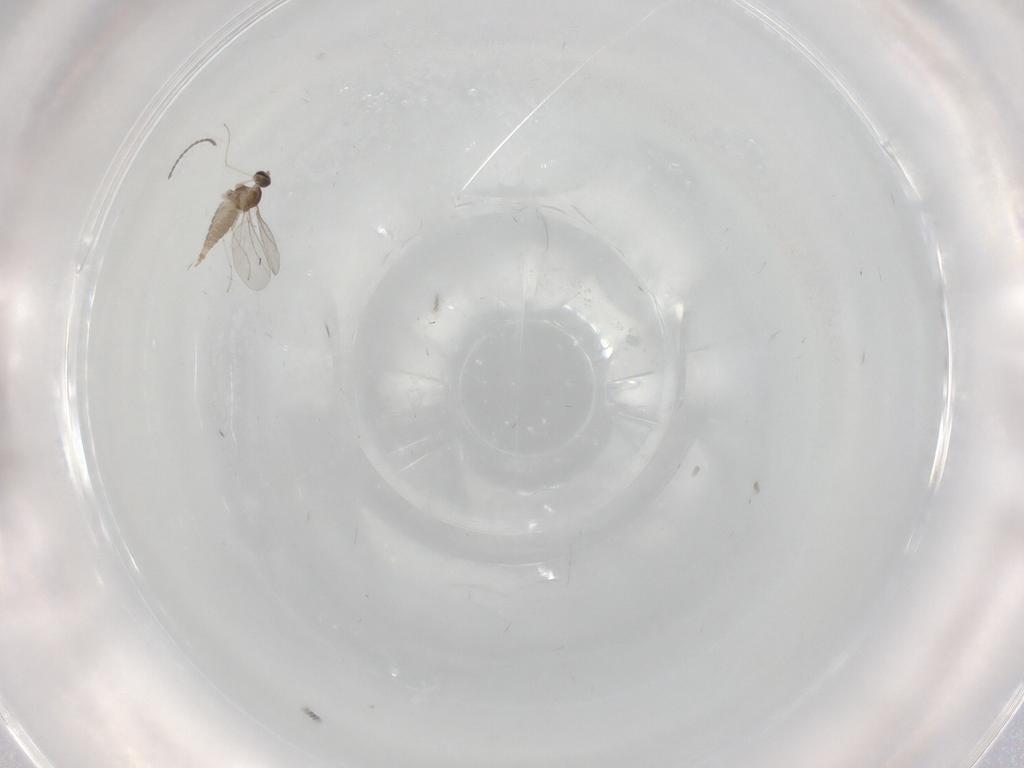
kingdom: Animalia
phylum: Arthropoda
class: Insecta
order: Diptera
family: Cecidomyiidae
